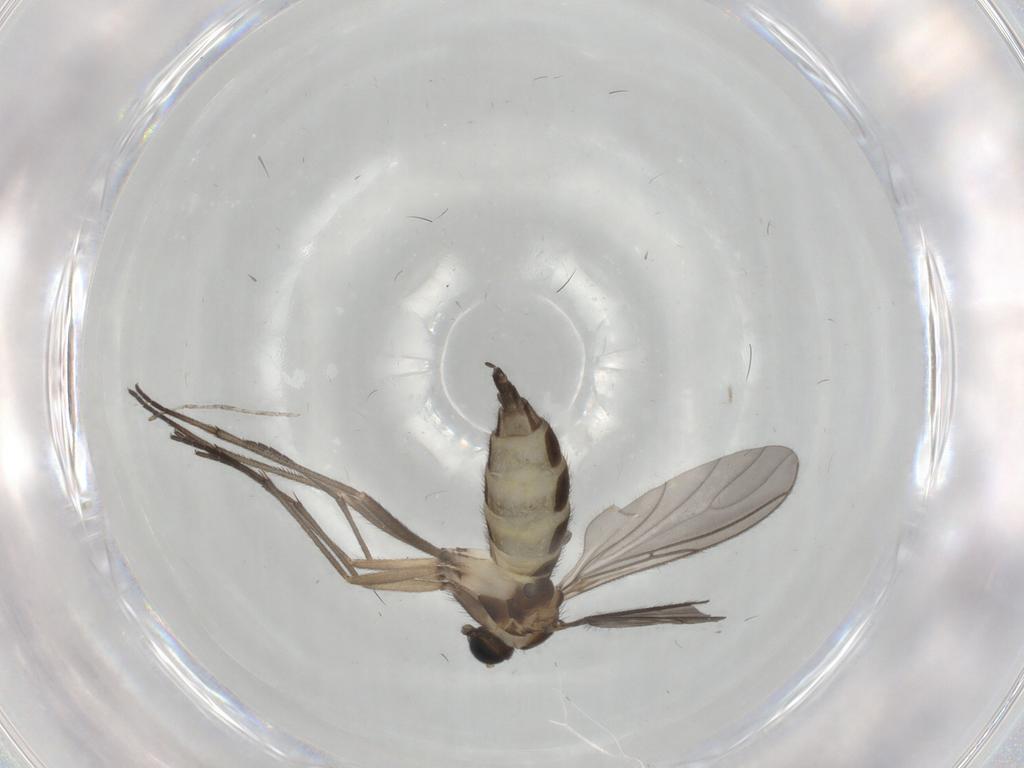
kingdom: Animalia
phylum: Arthropoda
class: Insecta
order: Diptera
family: Sciaridae
